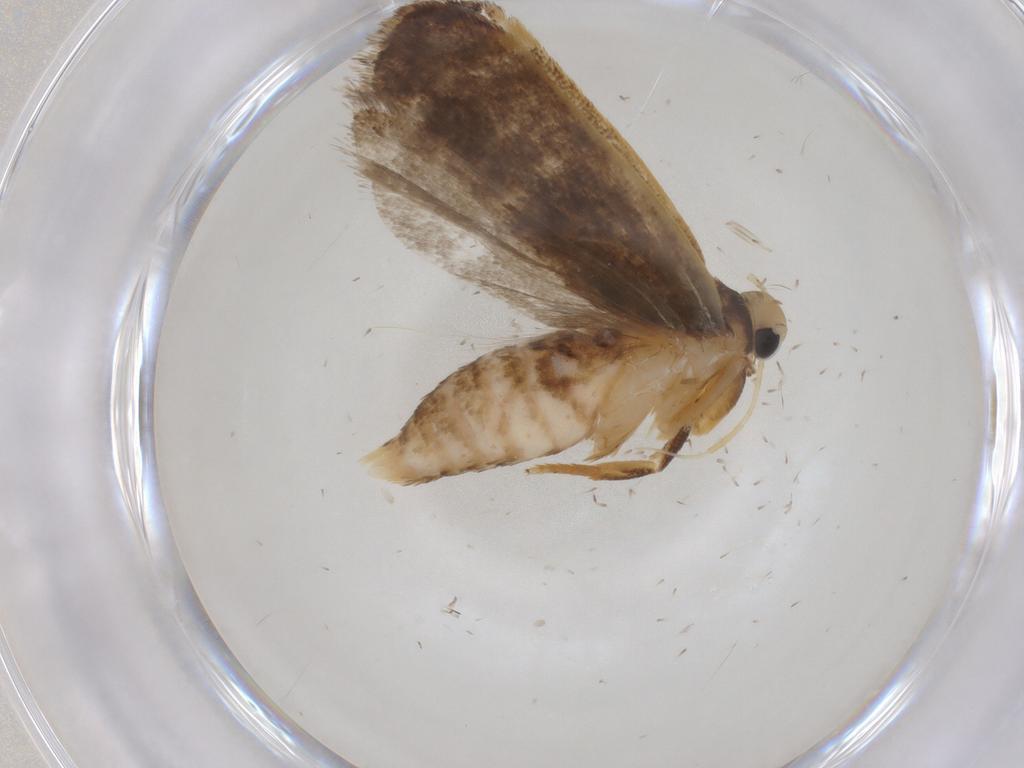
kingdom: Animalia
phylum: Arthropoda
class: Insecta
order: Lepidoptera
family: Gelechiidae
